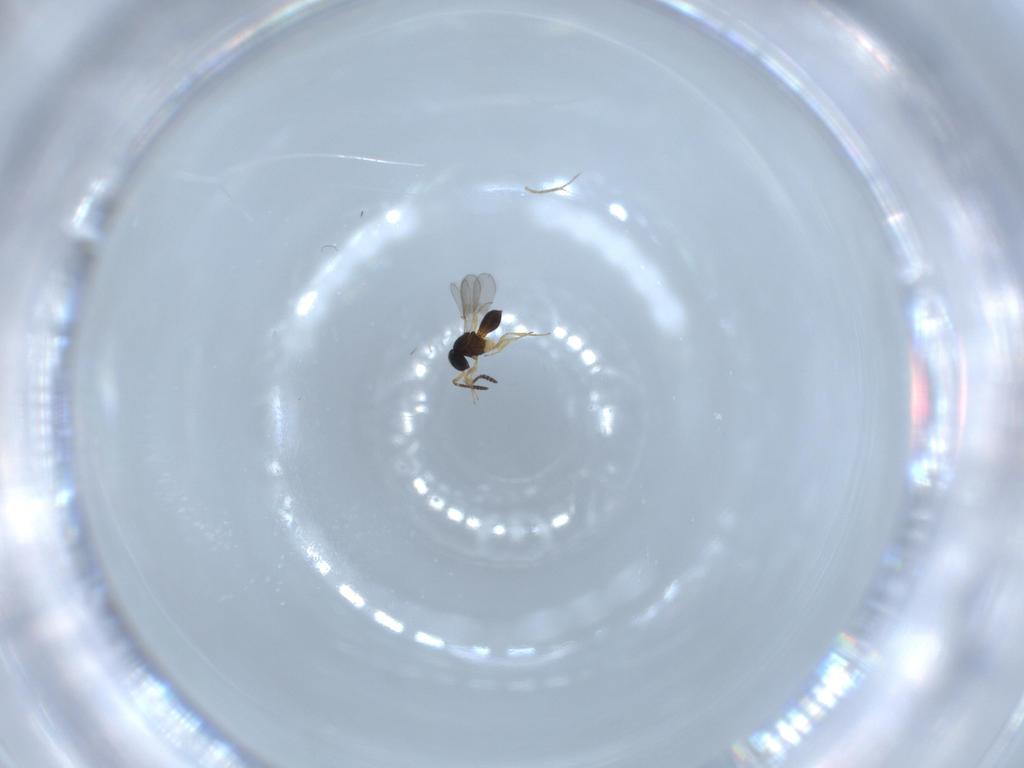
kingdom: Animalia
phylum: Arthropoda
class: Insecta
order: Hymenoptera
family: Scelionidae
